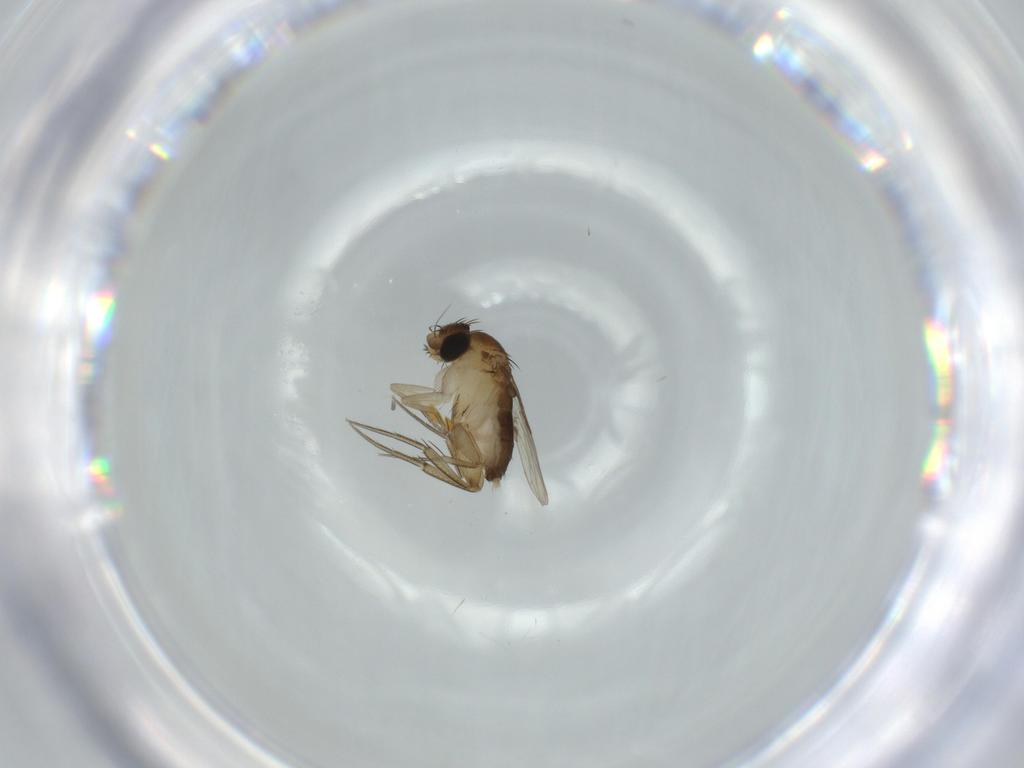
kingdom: Animalia
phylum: Arthropoda
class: Insecta
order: Diptera
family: Phoridae
